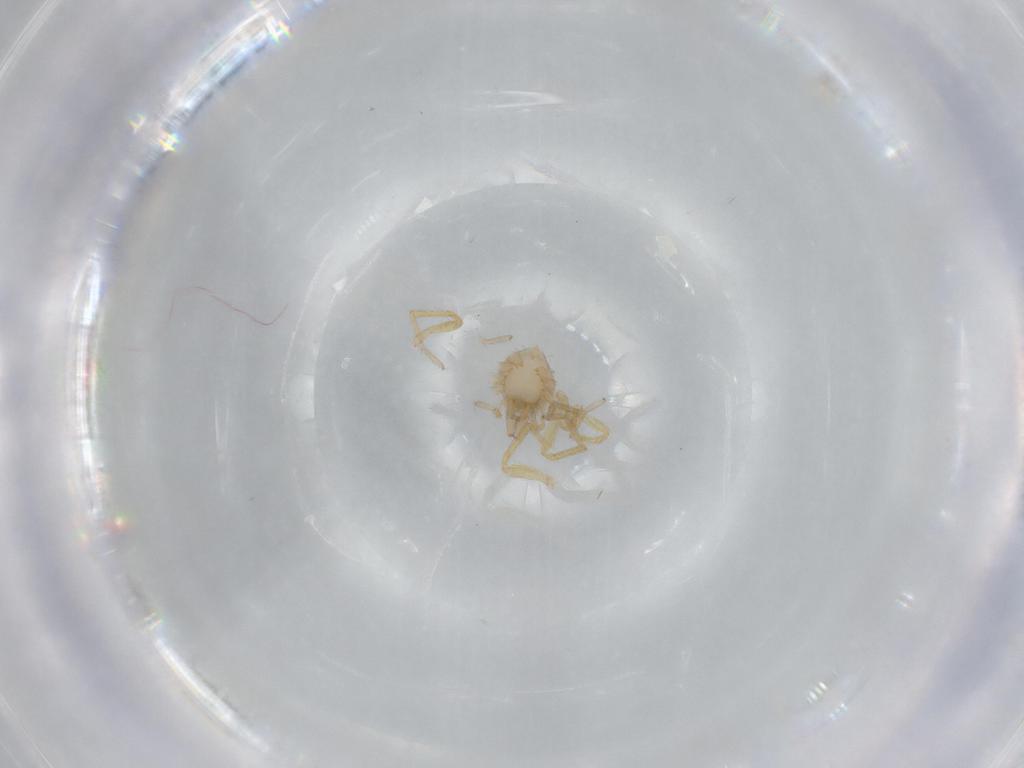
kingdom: Animalia
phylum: Arthropoda
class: Arachnida
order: Araneae
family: Oonopidae
